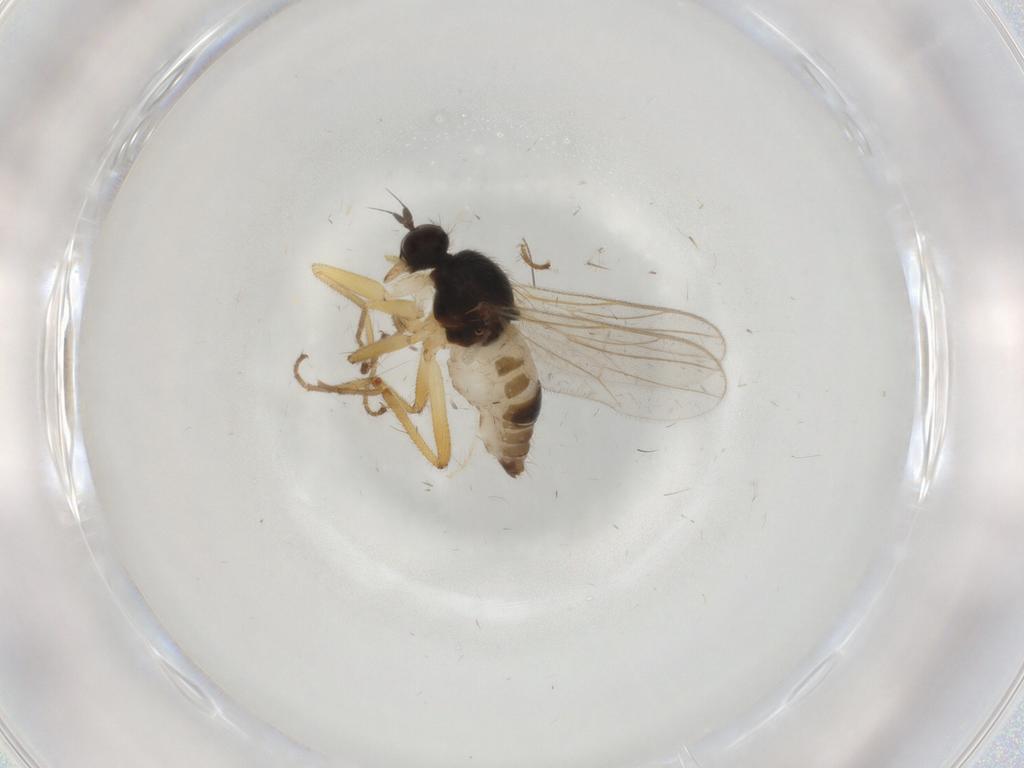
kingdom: Animalia
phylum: Arthropoda
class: Insecta
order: Diptera
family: Hybotidae
